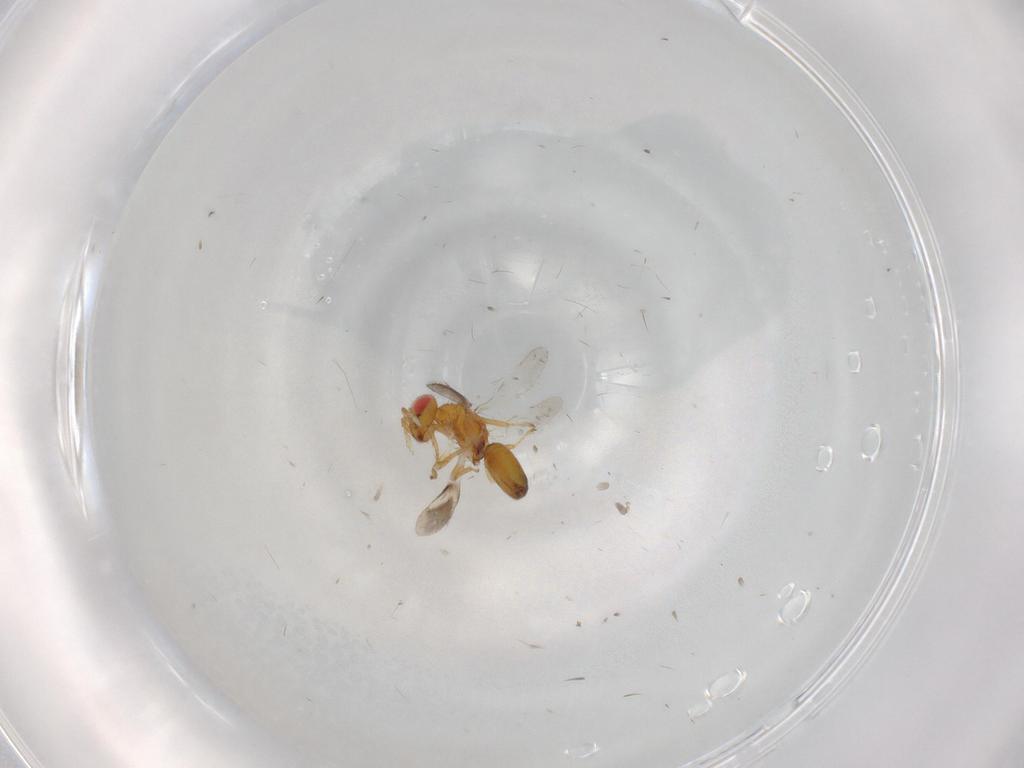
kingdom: Animalia
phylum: Arthropoda
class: Insecta
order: Hymenoptera
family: Eulophidae
